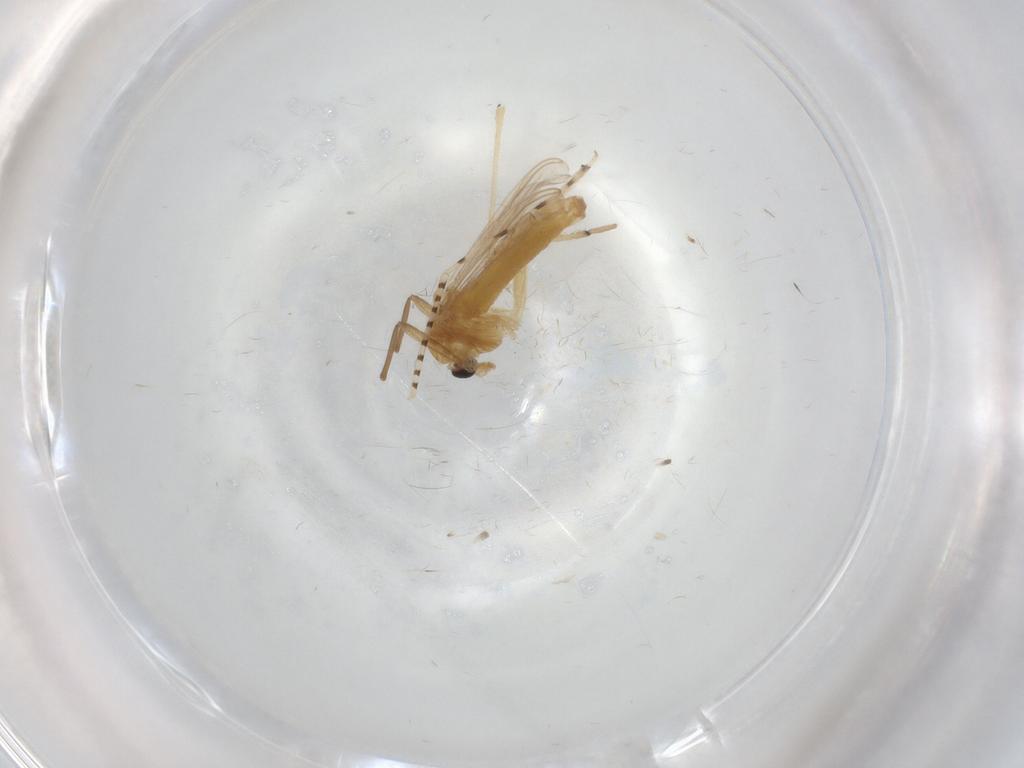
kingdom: Animalia
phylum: Arthropoda
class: Insecta
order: Diptera
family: Chironomidae
